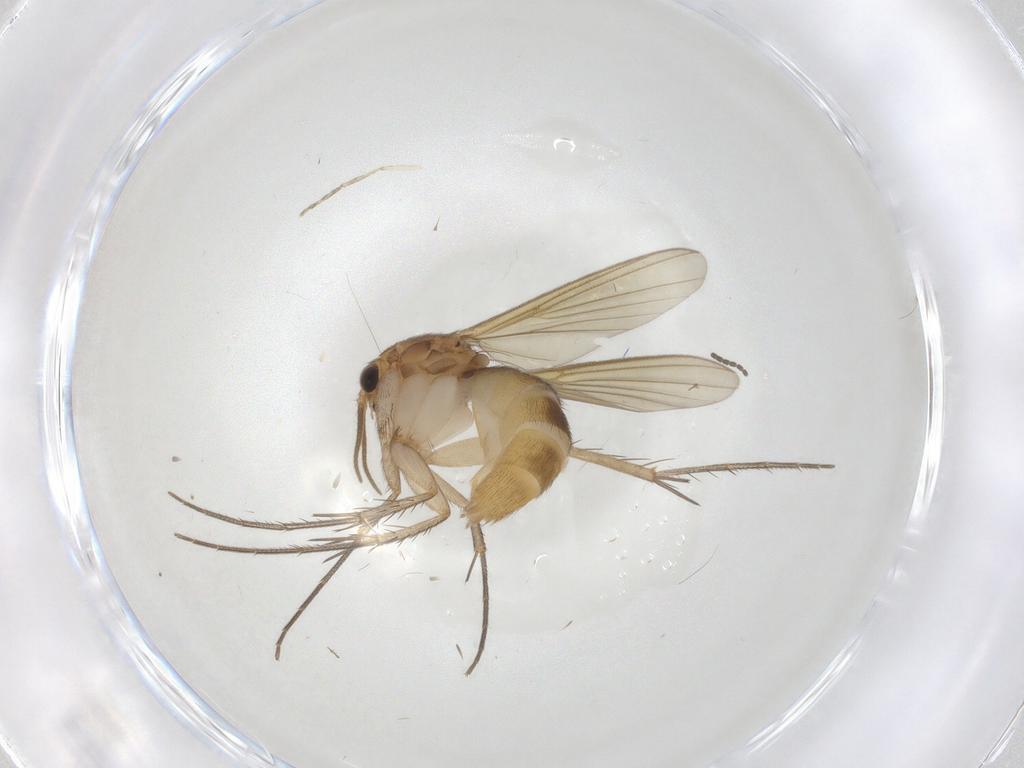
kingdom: Animalia
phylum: Arthropoda
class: Insecta
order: Diptera
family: Mycetophilidae
